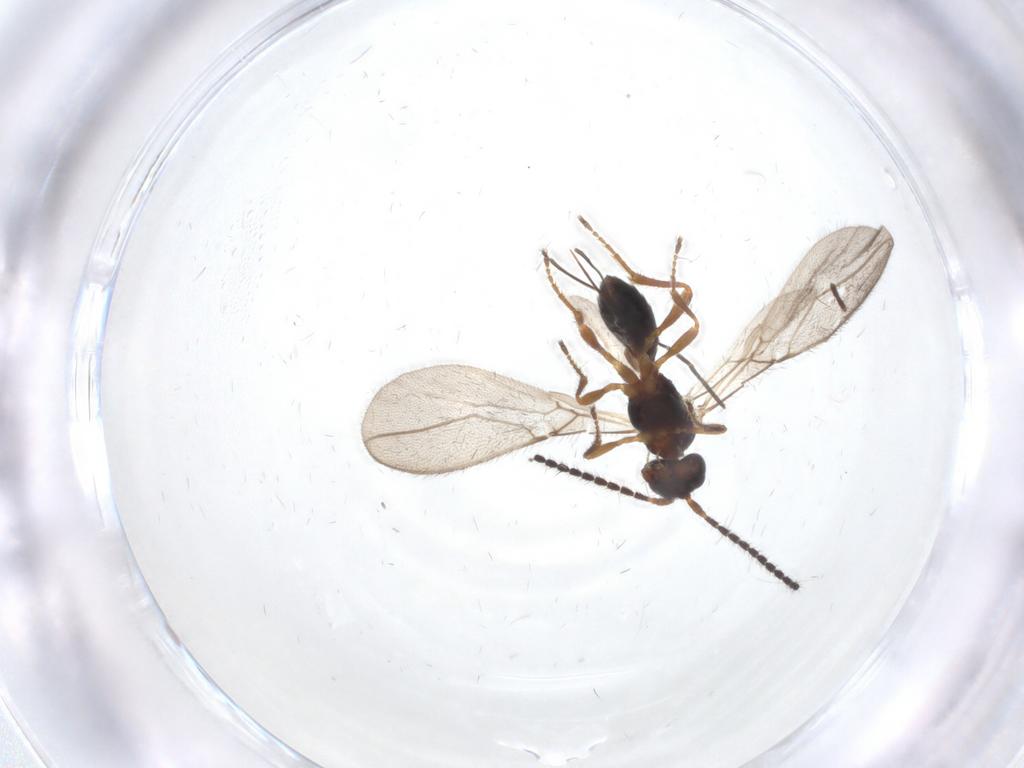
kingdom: Animalia
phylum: Arthropoda
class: Insecta
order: Hymenoptera
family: Braconidae
